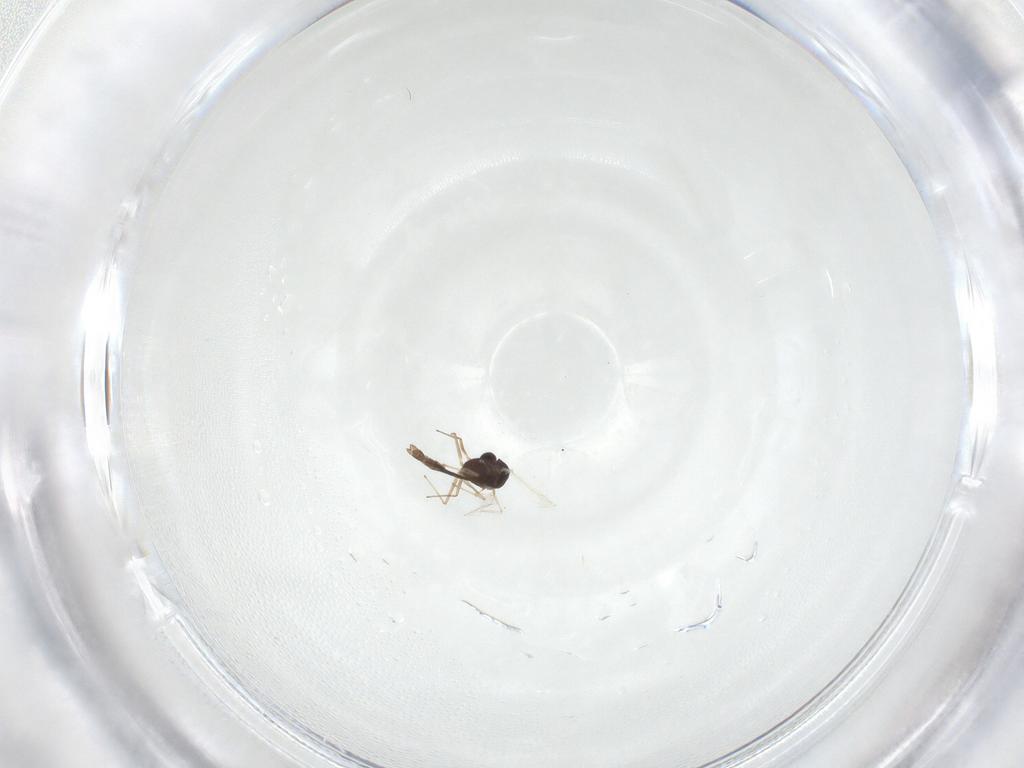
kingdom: Animalia
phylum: Arthropoda
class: Insecta
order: Diptera
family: Chironomidae
